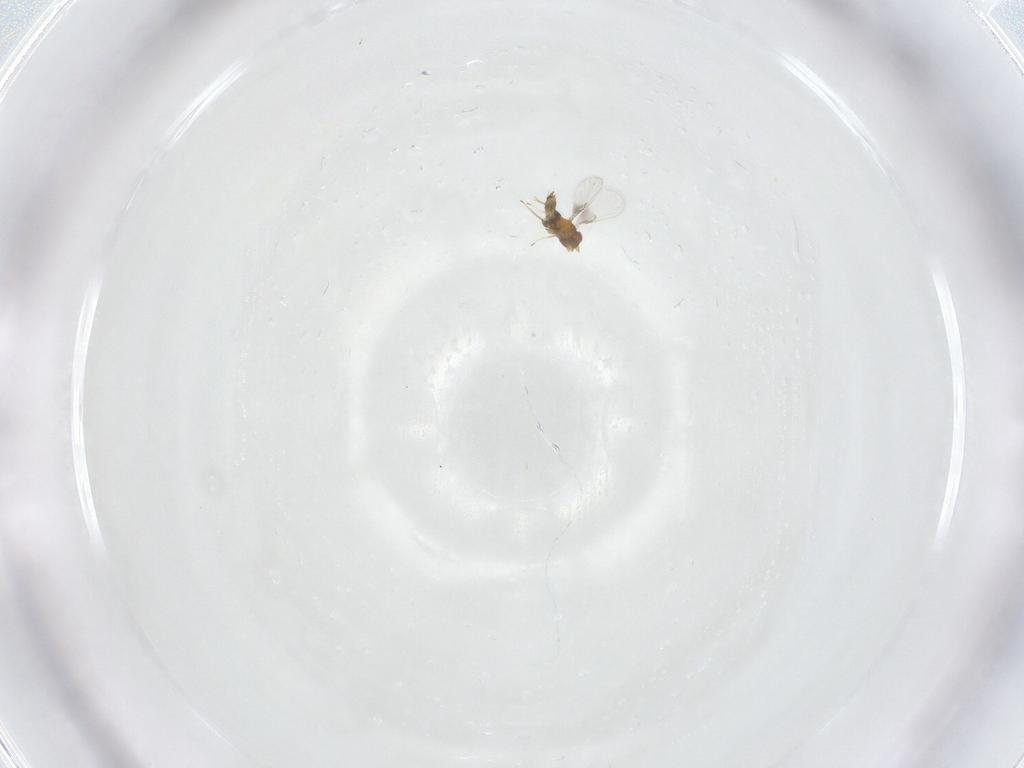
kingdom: Animalia
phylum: Arthropoda
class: Insecta
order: Hymenoptera
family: Trichogrammatidae
